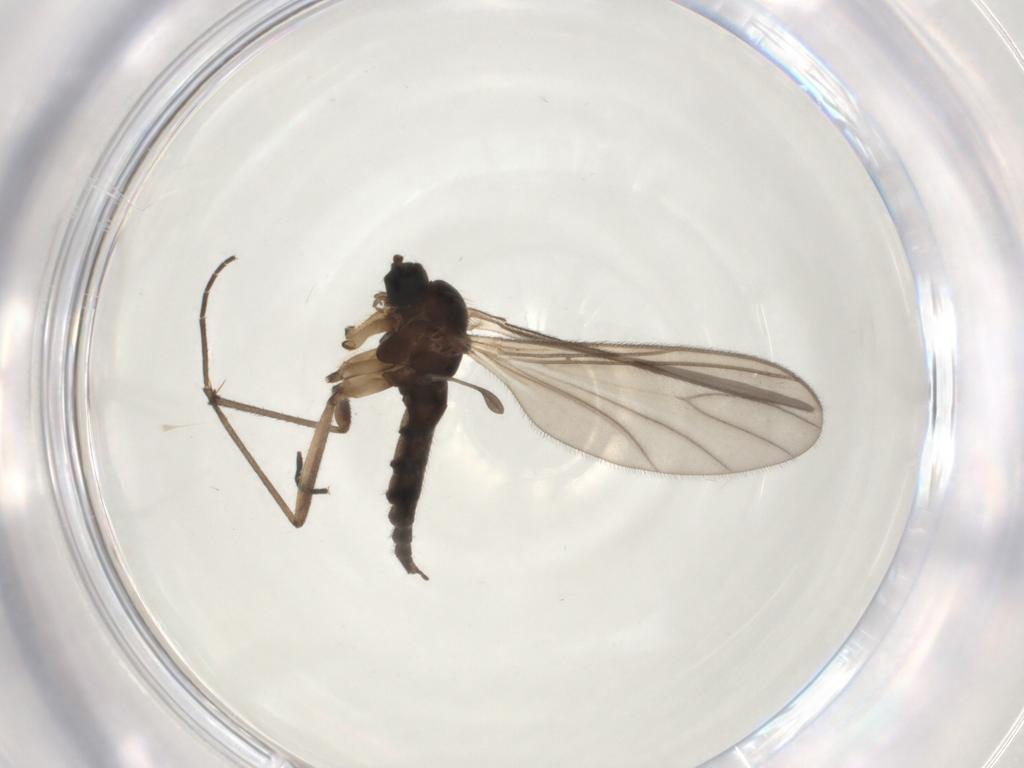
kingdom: Animalia
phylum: Arthropoda
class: Insecta
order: Diptera
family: Sciaridae
